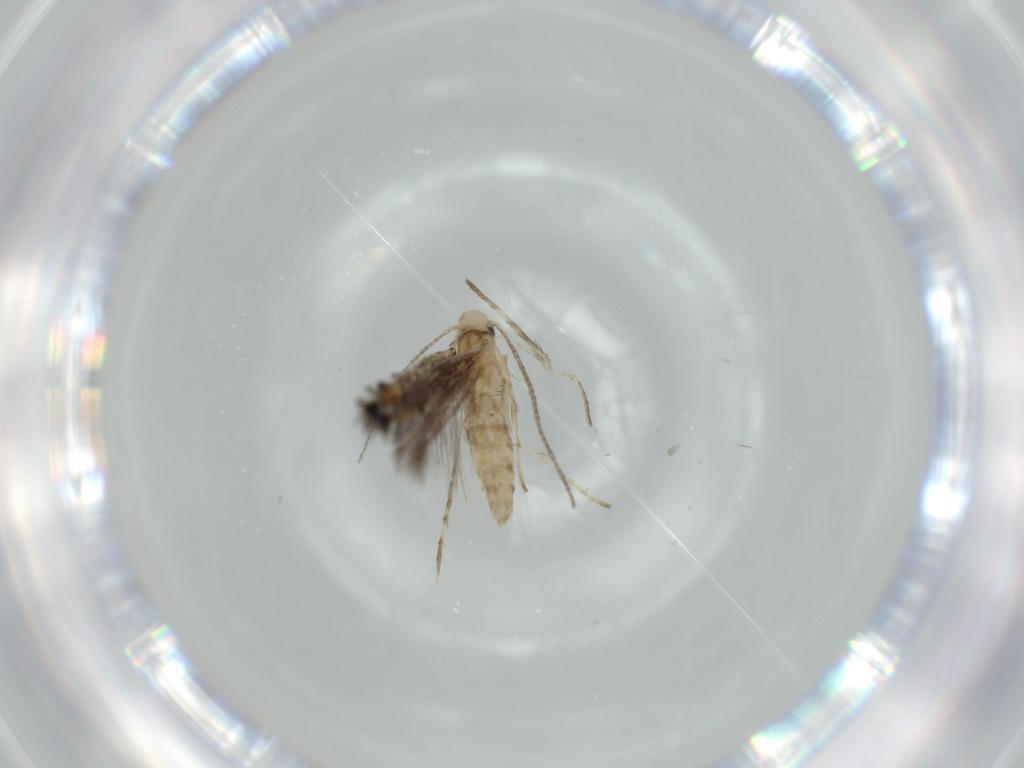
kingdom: Animalia
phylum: Arthropoda
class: Insecta
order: Lepidoptera
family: Gracillariidae
